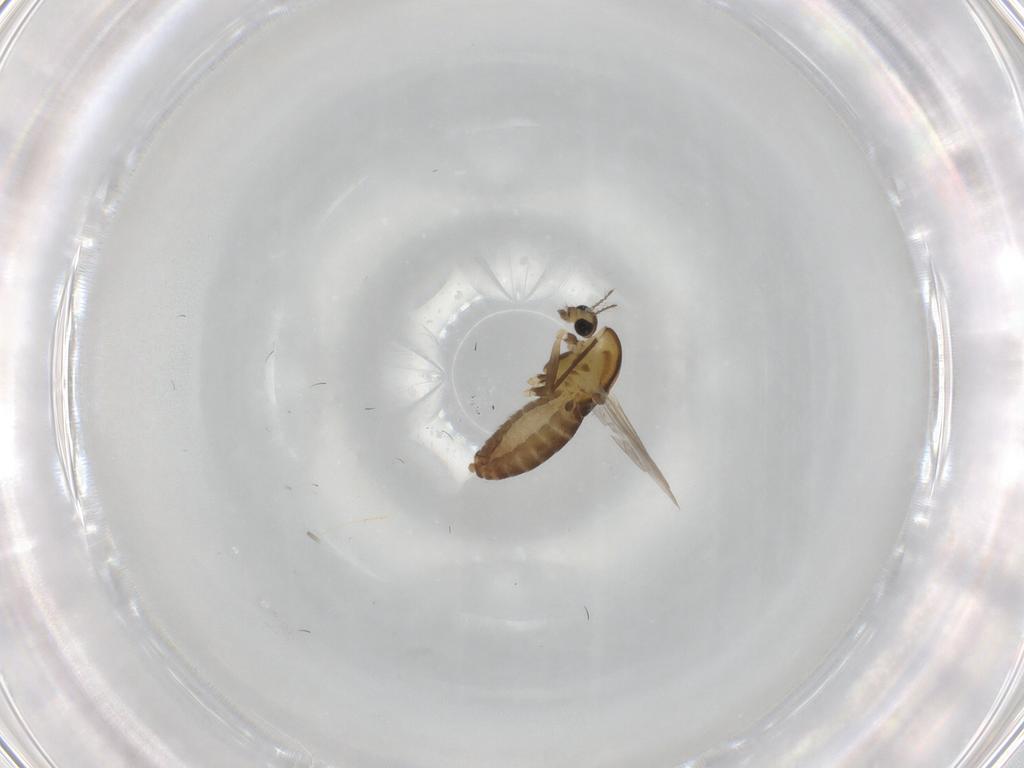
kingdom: Animalia
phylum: Arthropoda
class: Insecta
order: Diptera
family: Chironomidae
